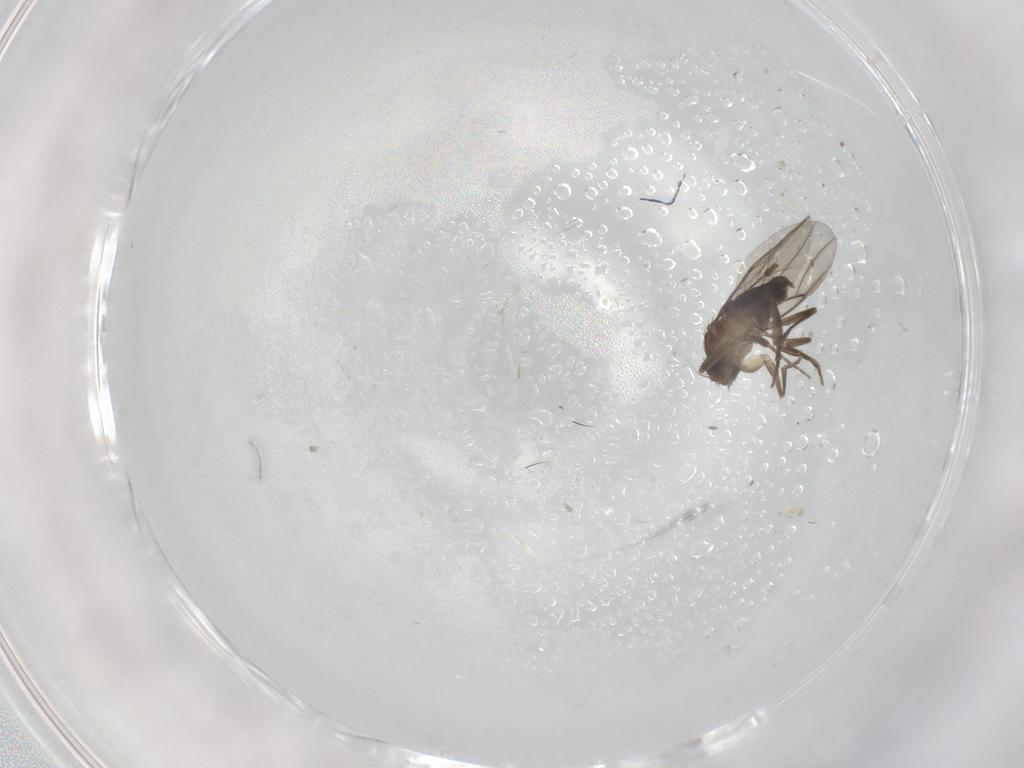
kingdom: Animalia
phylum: Arthropoda
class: Insecta
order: Diptera
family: Phoridae
